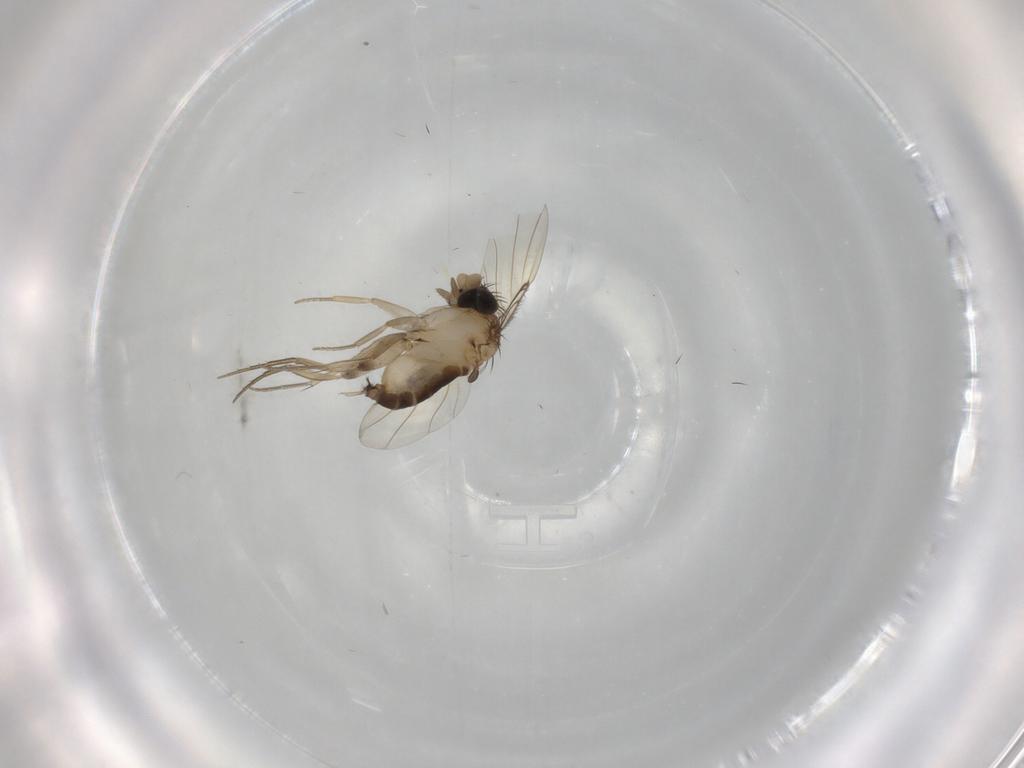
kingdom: Animalia
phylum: Arthropoda
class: Insecta
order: Diptera
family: Phoridae
